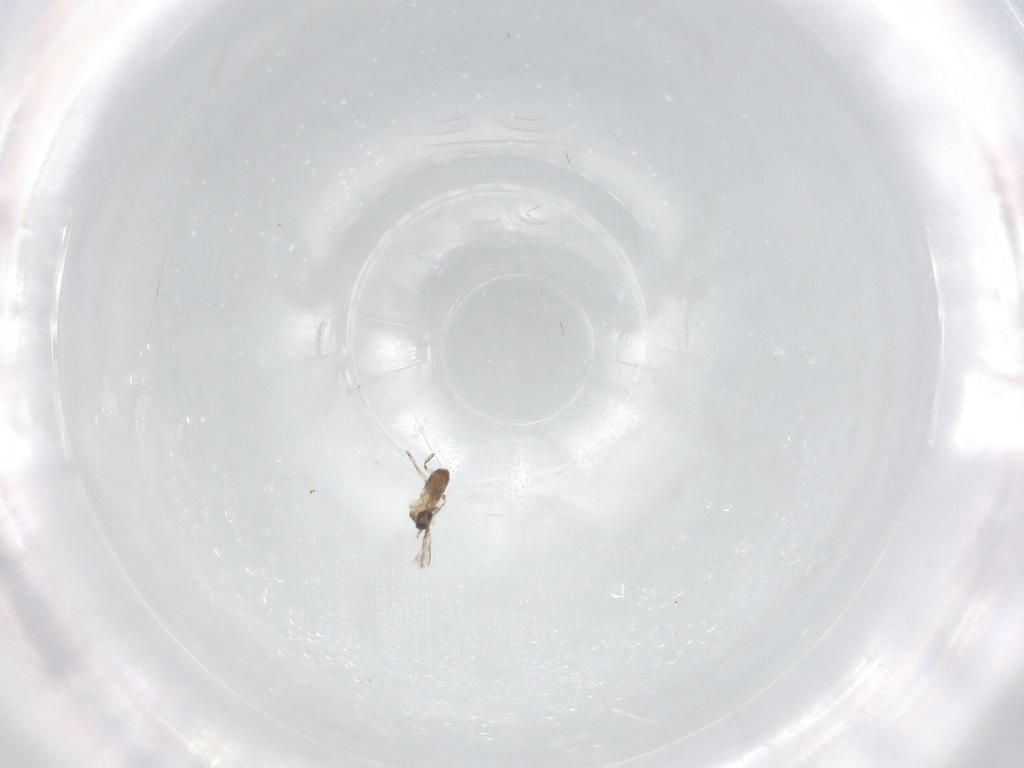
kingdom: Animalia
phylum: Arthropoda
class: Insecta
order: Diptera
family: Cecidomyiidae
